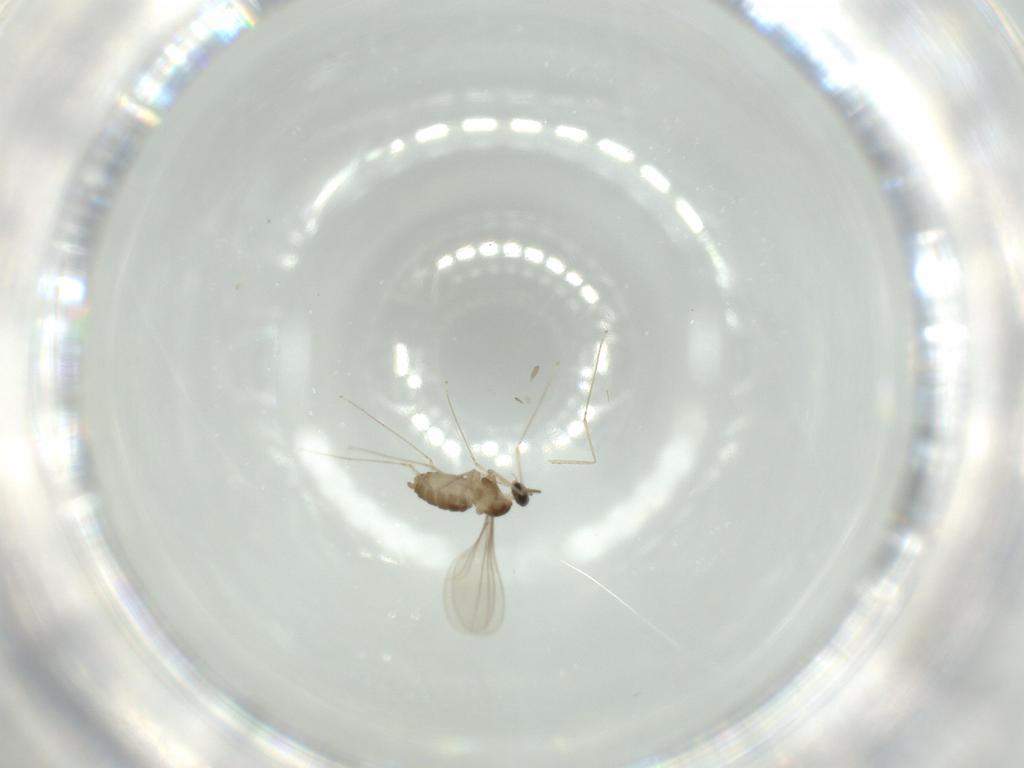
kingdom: Animalia
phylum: Arthropoda
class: Insecta
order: Diptera
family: Cecidomyiidae
